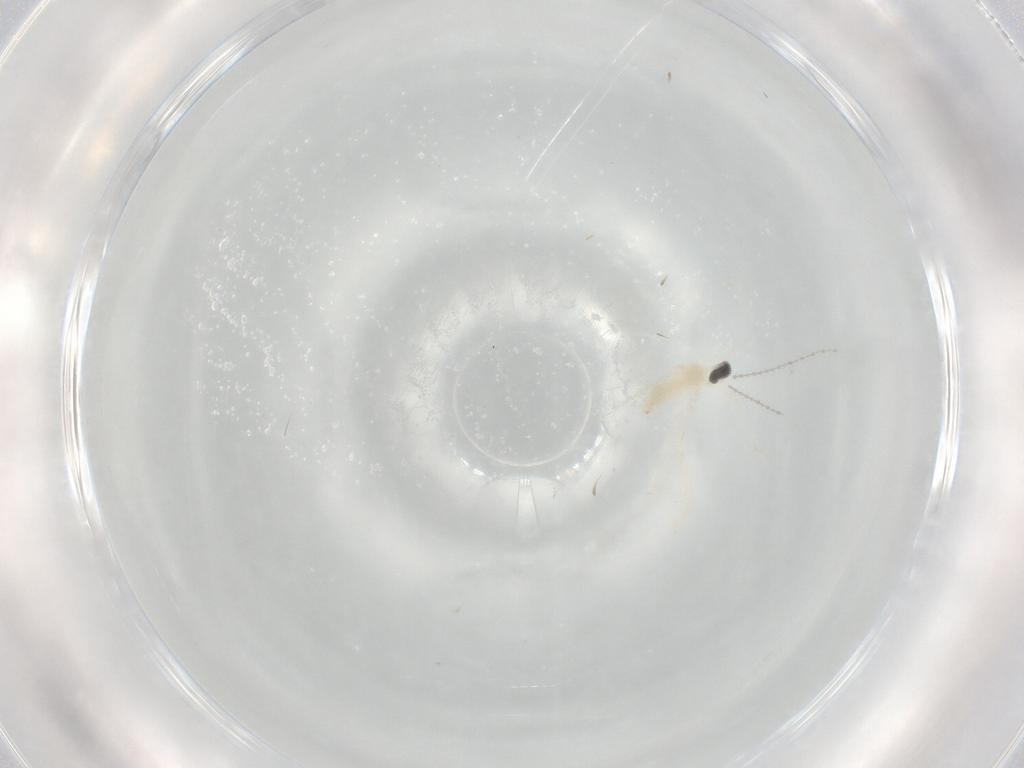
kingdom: Animalia
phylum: Arthropoda
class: Insecta
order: Diptera
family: Cecidomyiidae
